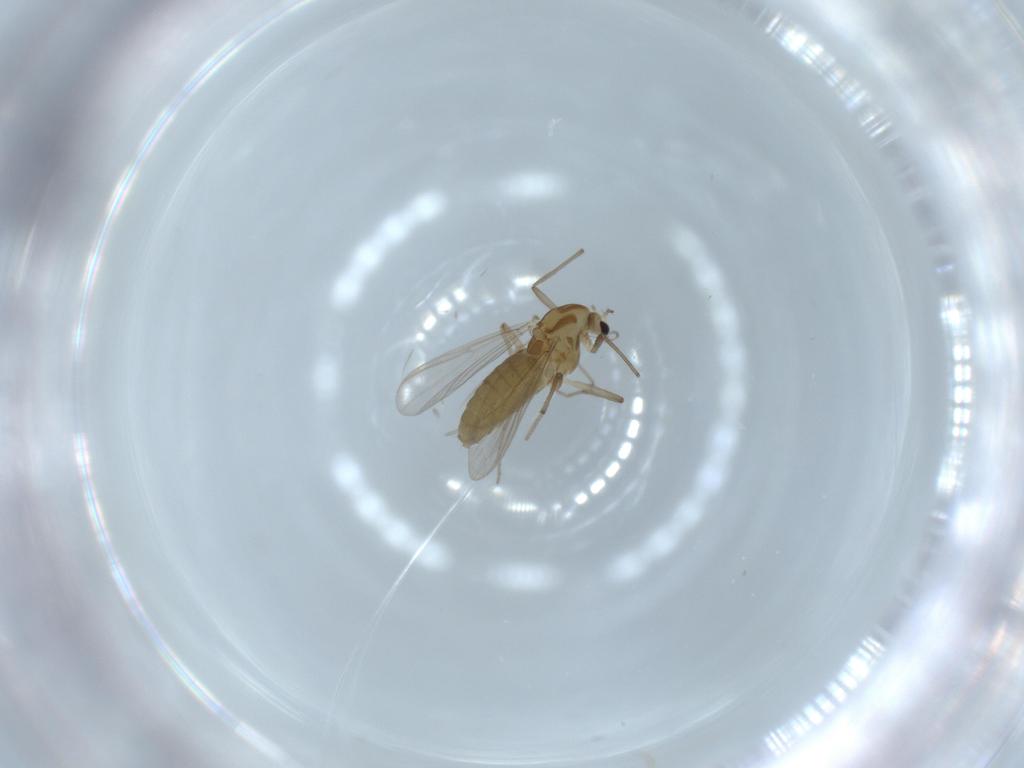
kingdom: Animalia
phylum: Arthropoda
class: Insecta
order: Diptera
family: Chironomidae
